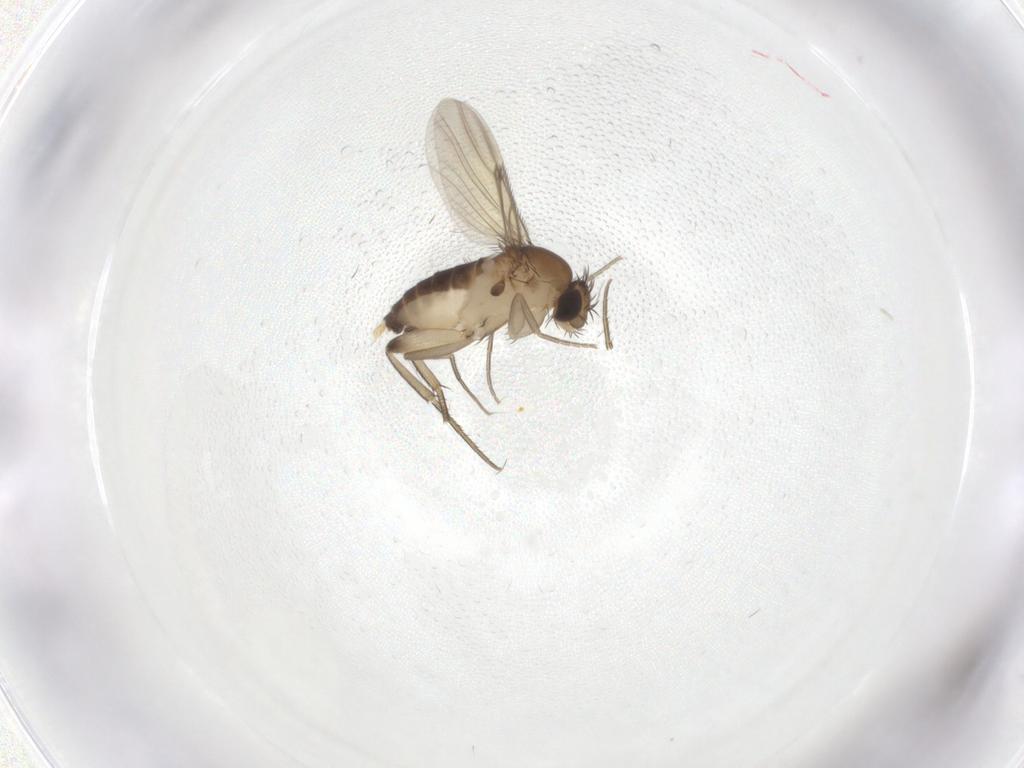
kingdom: Animalia
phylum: Arthropoda
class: Insecta
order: Diptera
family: Phoridae
